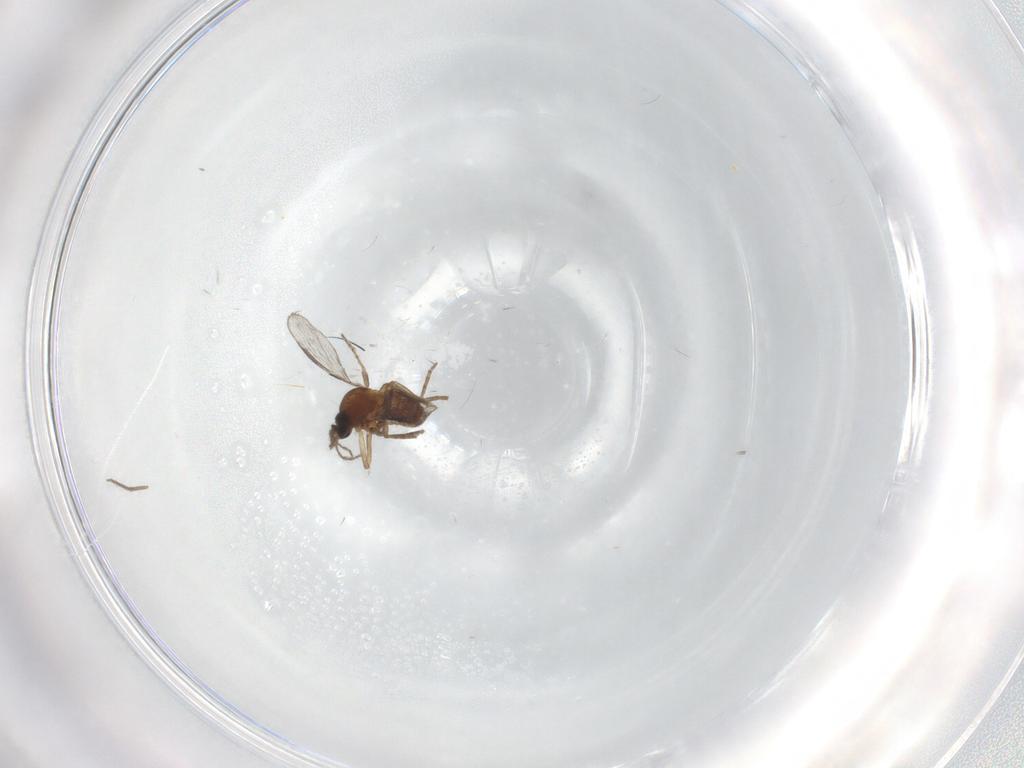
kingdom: Animalia
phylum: Arthropoda
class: Insecta
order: Diptera
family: Chironomidae
